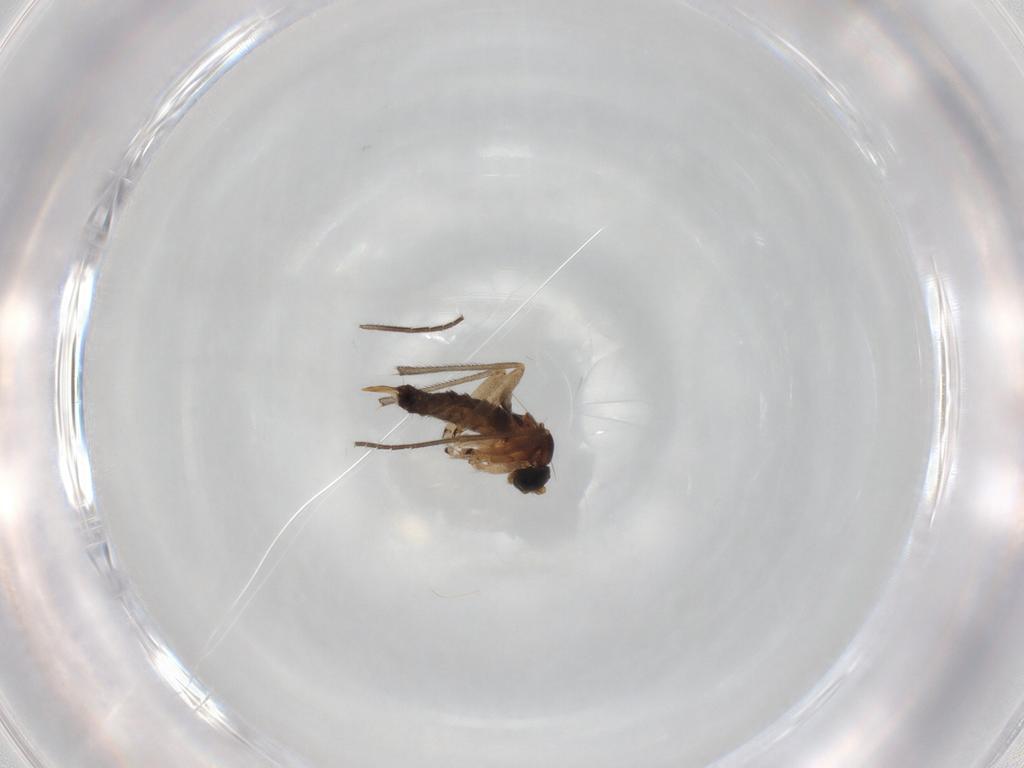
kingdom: Animalia
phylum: Arthropoda
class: Insecta
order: Diptera
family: Sciaridae
